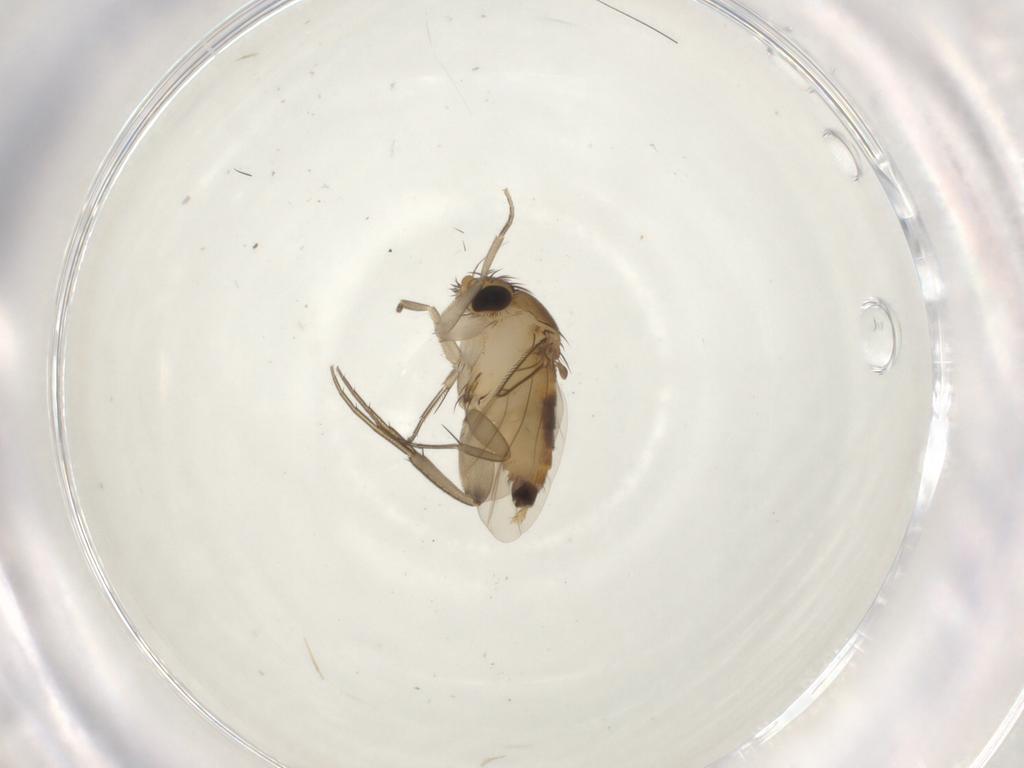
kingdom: Animalia
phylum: Arthropoda
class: Insecta
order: Diptera
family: Phoridae
